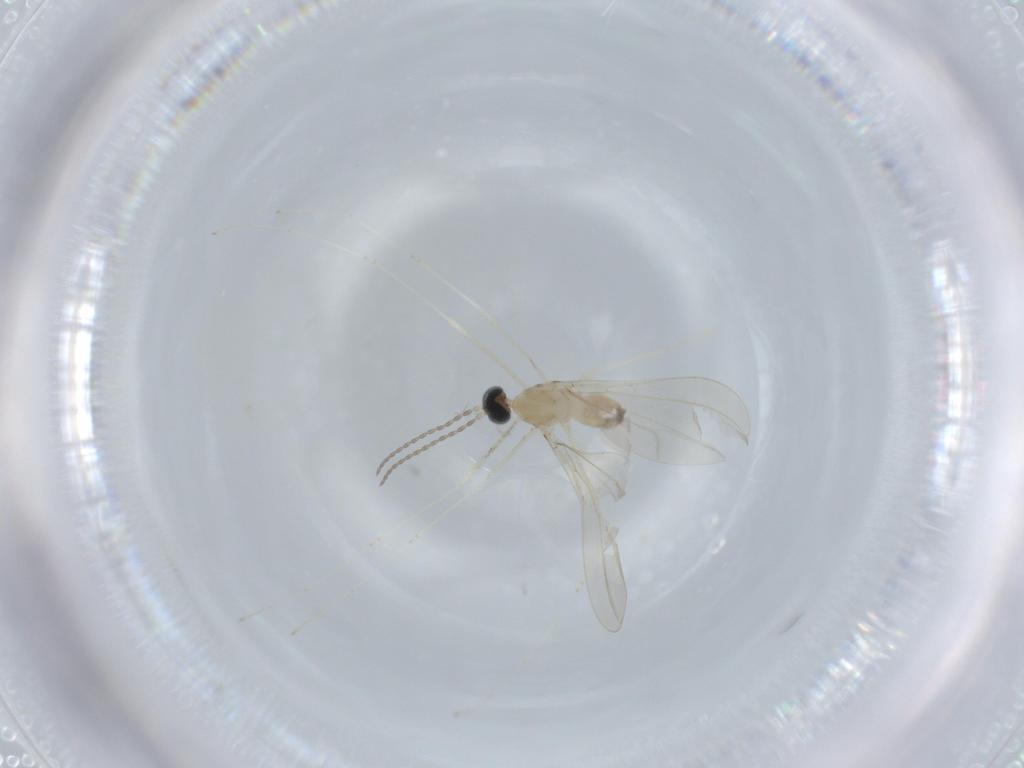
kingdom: Animalia
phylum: Arthropoda
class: Insecta
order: Diptera
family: Cecidomyiidae
